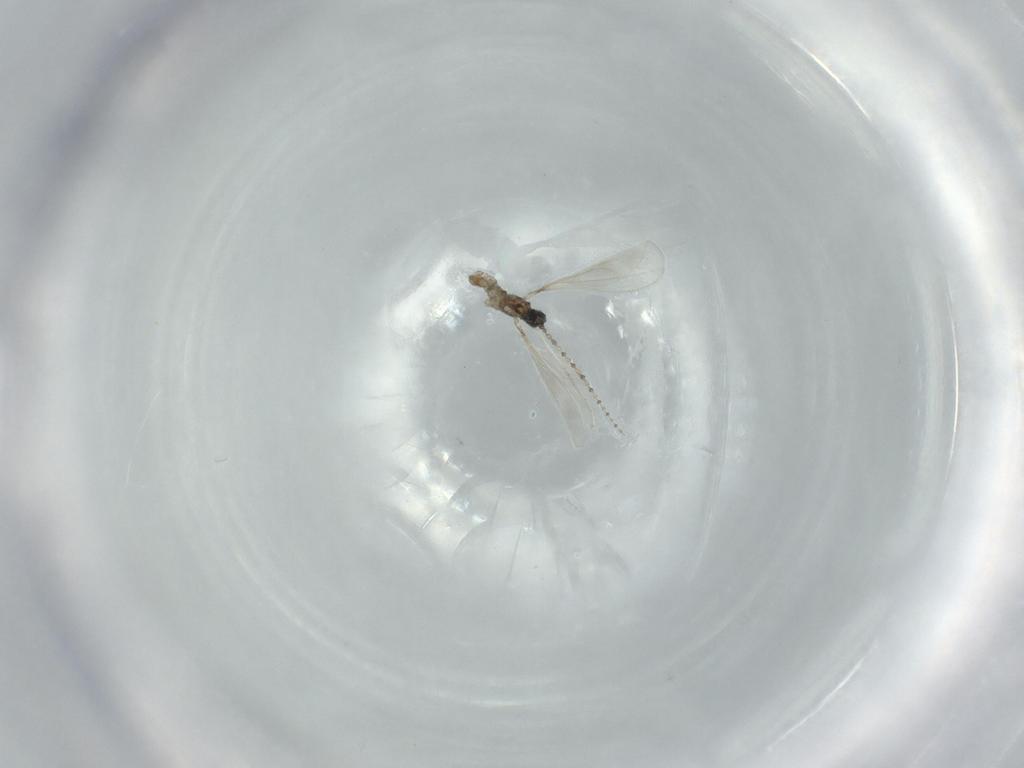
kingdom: Animalia
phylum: Arthropoda
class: Insecta
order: Diptera
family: Cecidomyiidae
